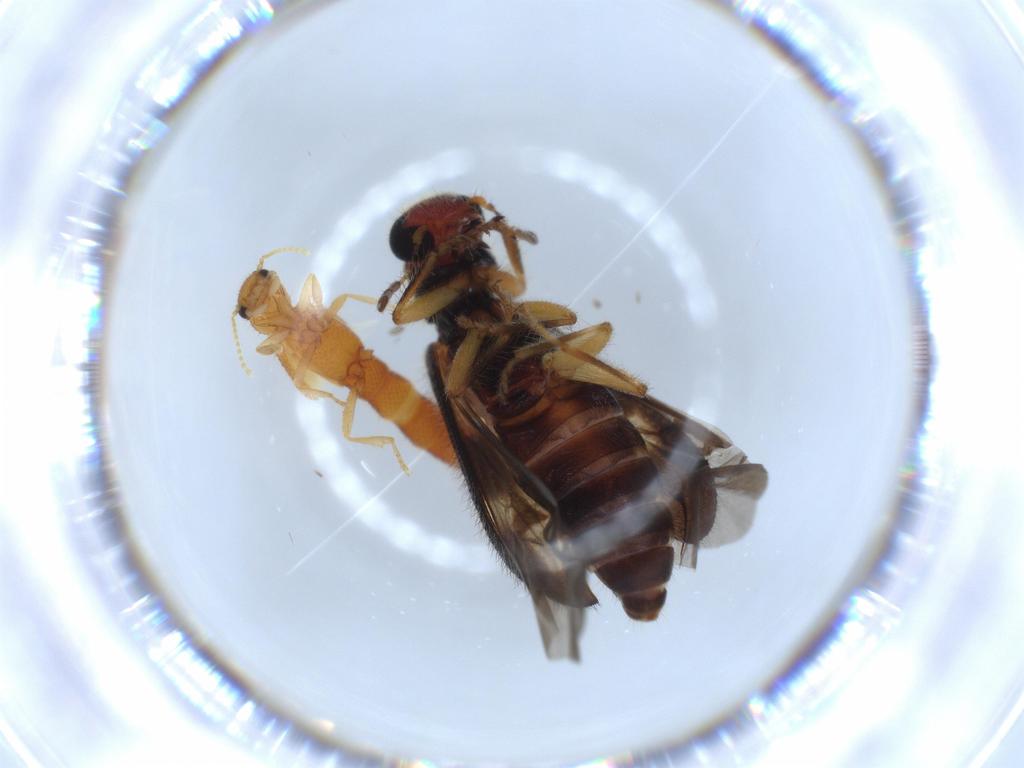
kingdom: Animalia
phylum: Arthropoda
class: Insecta
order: Coleoptera
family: Staphylinidae
